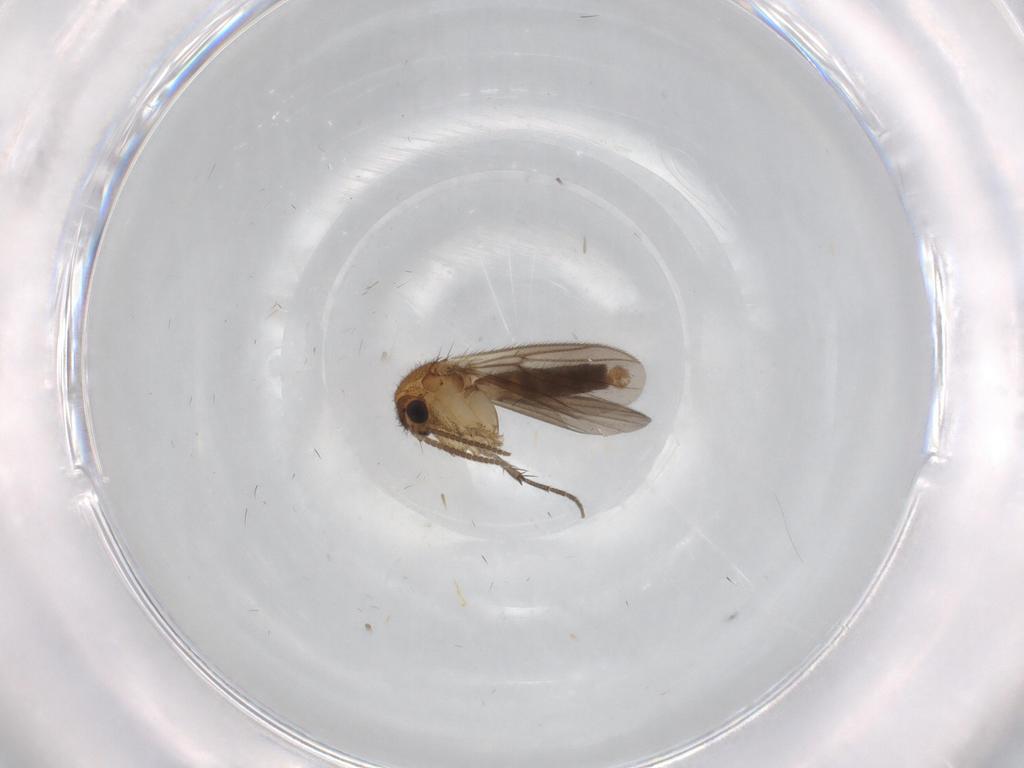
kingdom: Animalia
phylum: Arthropoda
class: Insecta
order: Diptera
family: Mycetophilidae
